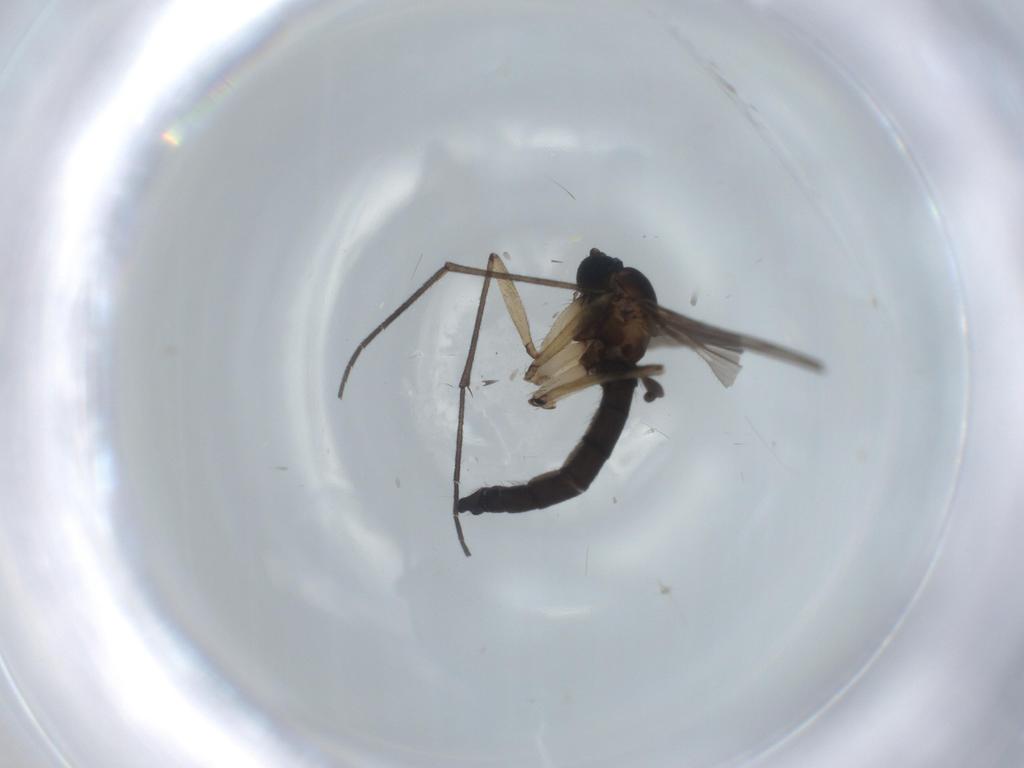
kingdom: Animalia
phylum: Arthropoda
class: Insecta
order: Diptera
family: Sciaridae
